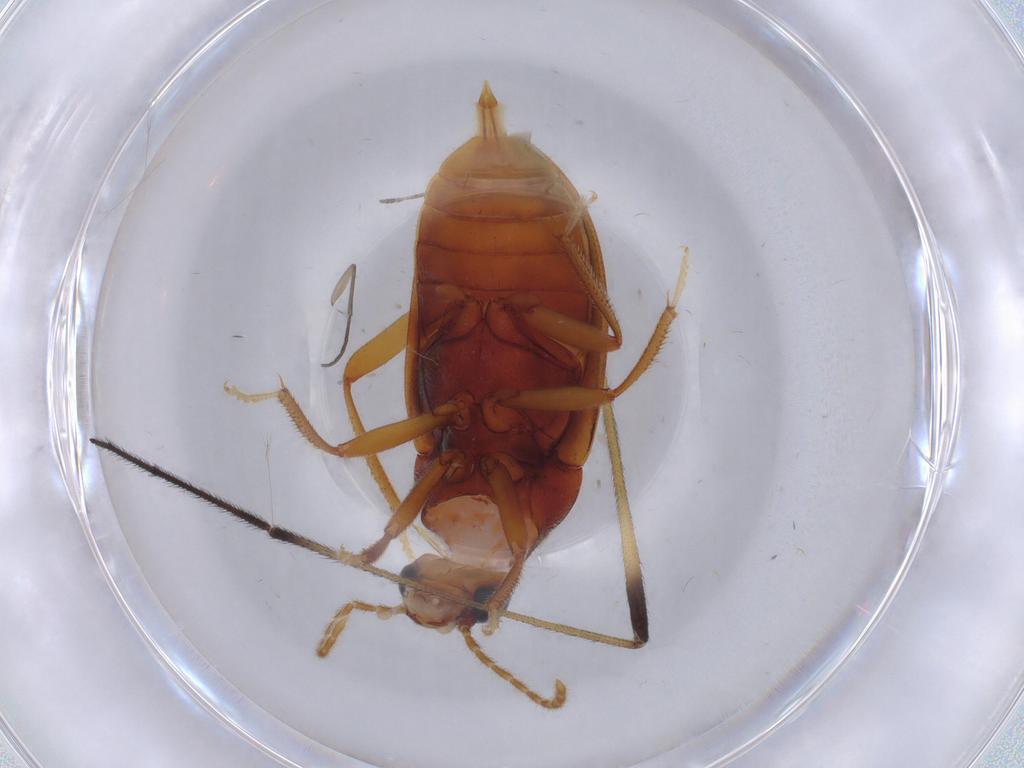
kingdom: Animalia
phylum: Arthropoda
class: Insecta
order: Coleoptera
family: Ptilodactylidae
